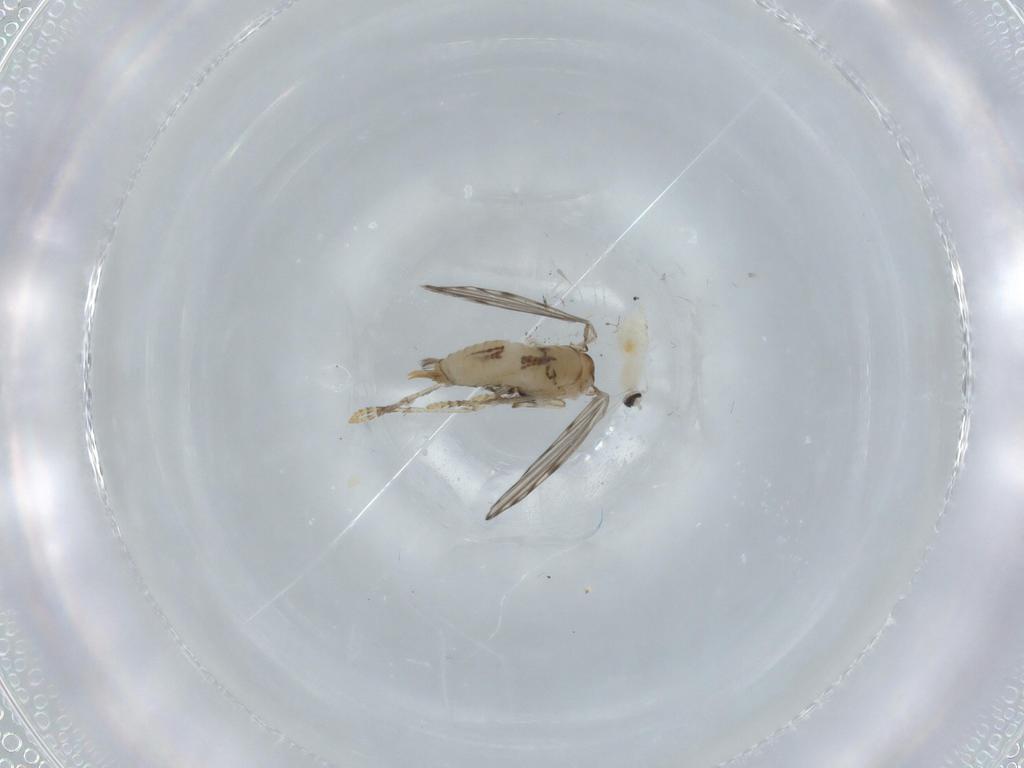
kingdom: Animalia
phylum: Arthropoda
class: Insecta
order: Diptera
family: Psychodidae
